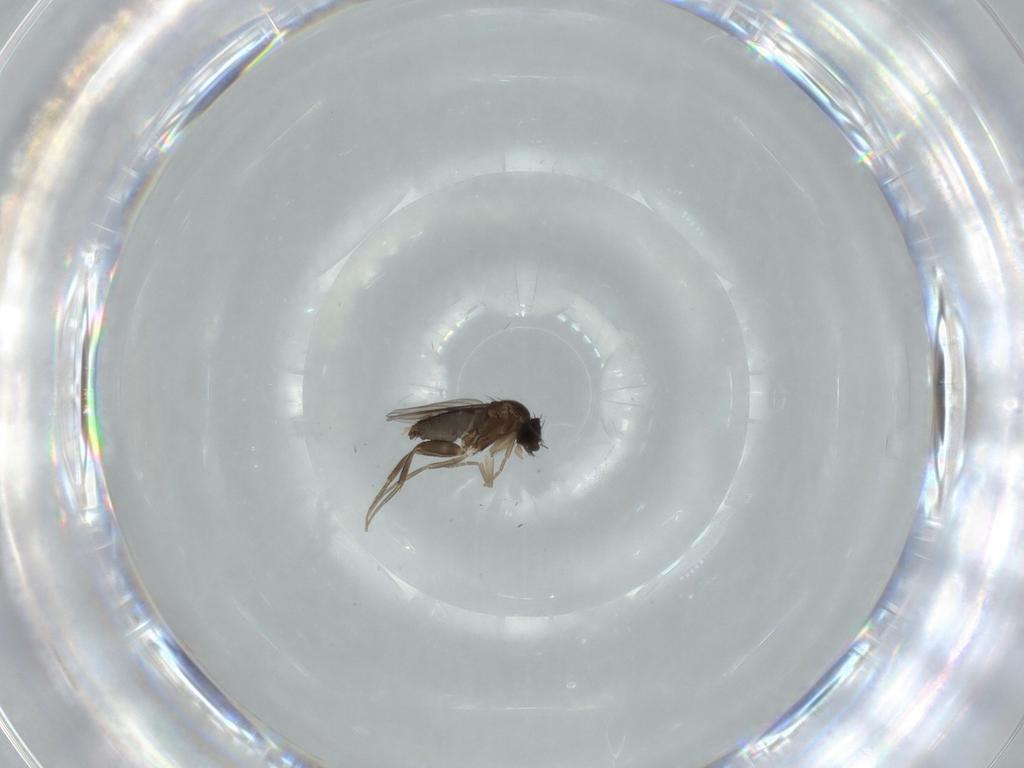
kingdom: Animalia
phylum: Arthropoda
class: Insecta
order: Diptera
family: Phoridae
